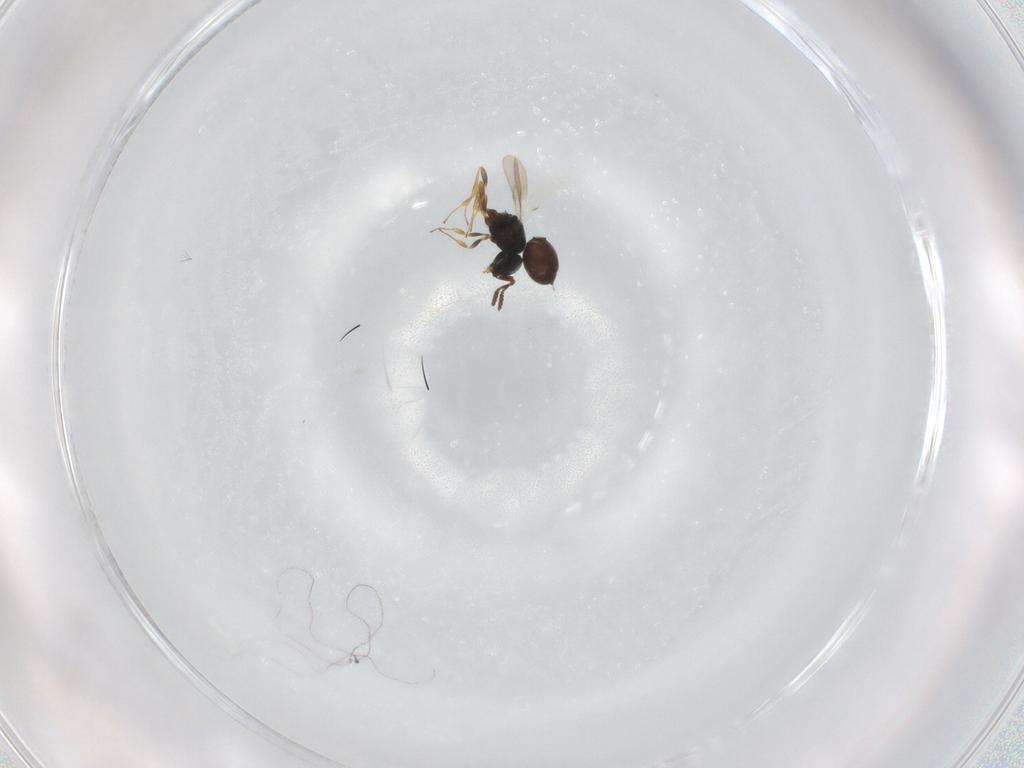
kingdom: Animalia
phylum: Arthropoda
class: Insecta
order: Hymenoptera
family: Scelionidae
